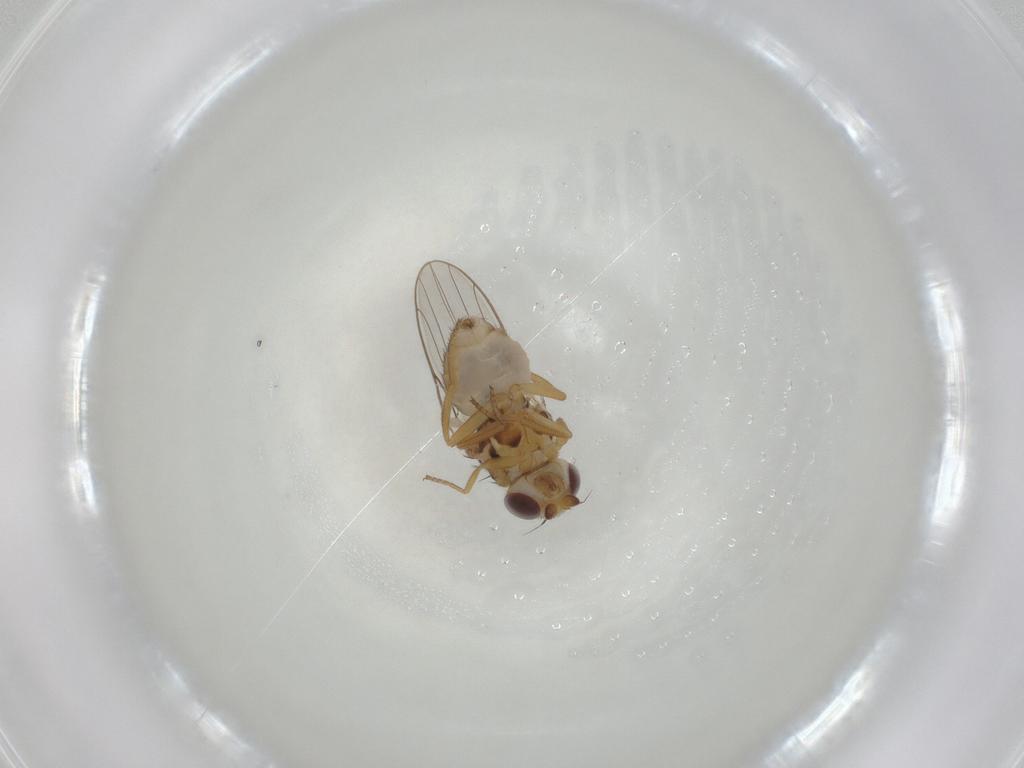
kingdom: Animalia
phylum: Arthropoda
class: Insecta
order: Diptera
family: Chloropidae
